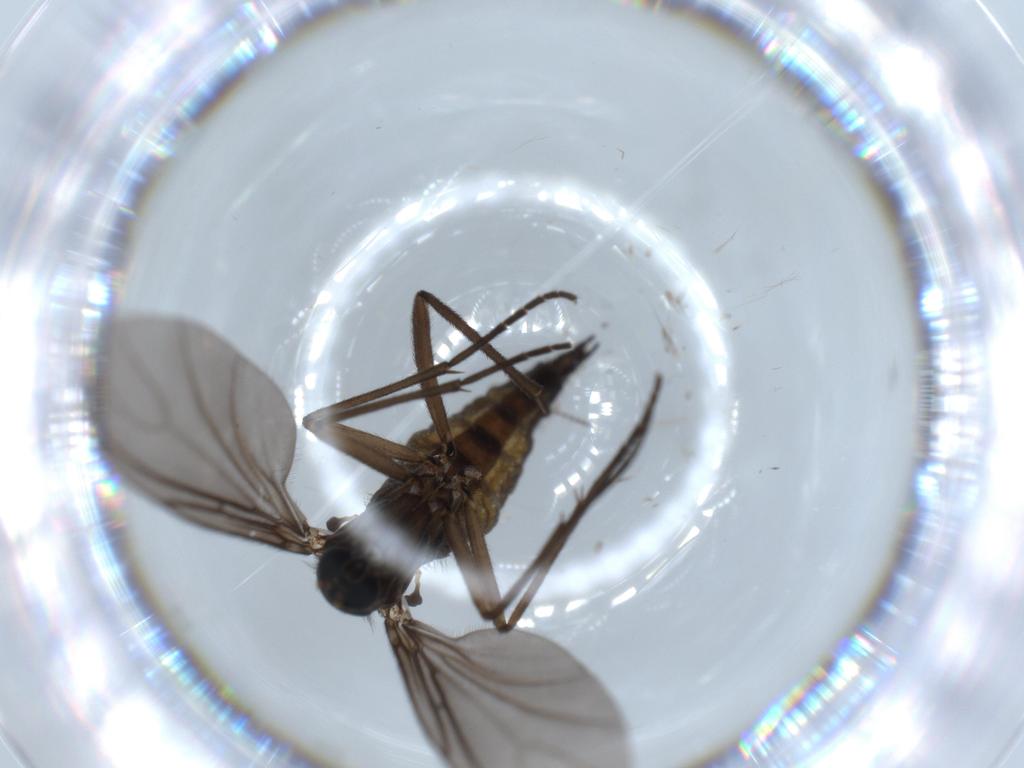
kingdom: Animalia
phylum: Arthropoda
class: Insecta
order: Diptera
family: Sciaridae
